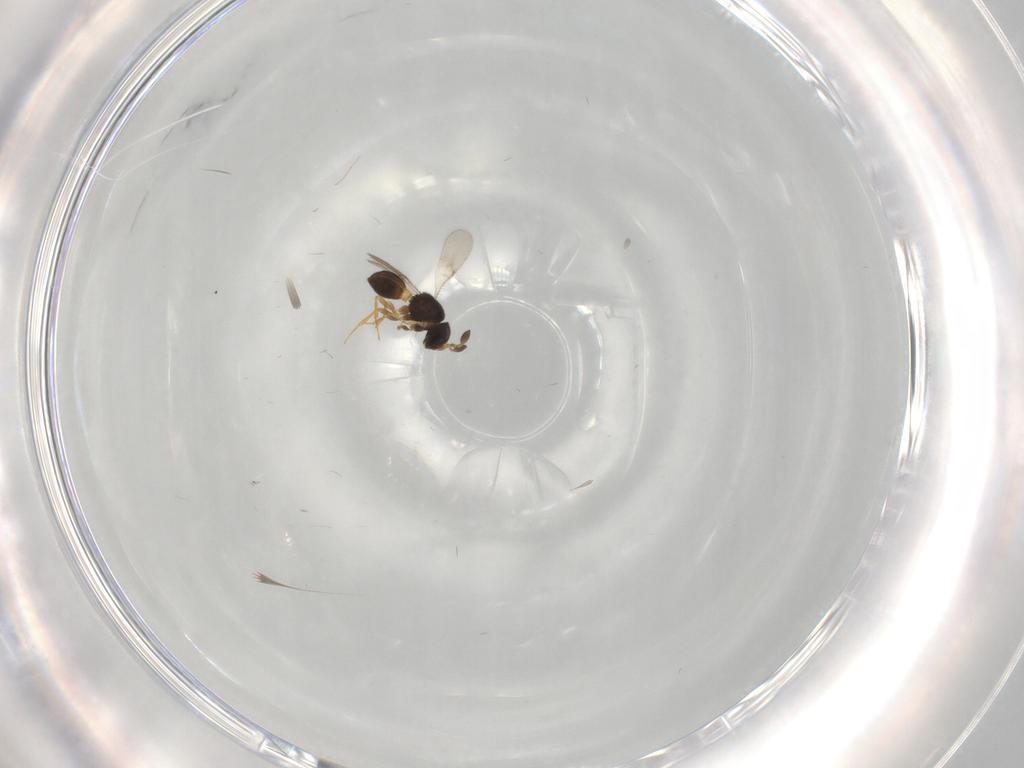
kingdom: Animalia
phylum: Arthropoda
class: Insecta
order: Hymenoptera
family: Scelionidae
